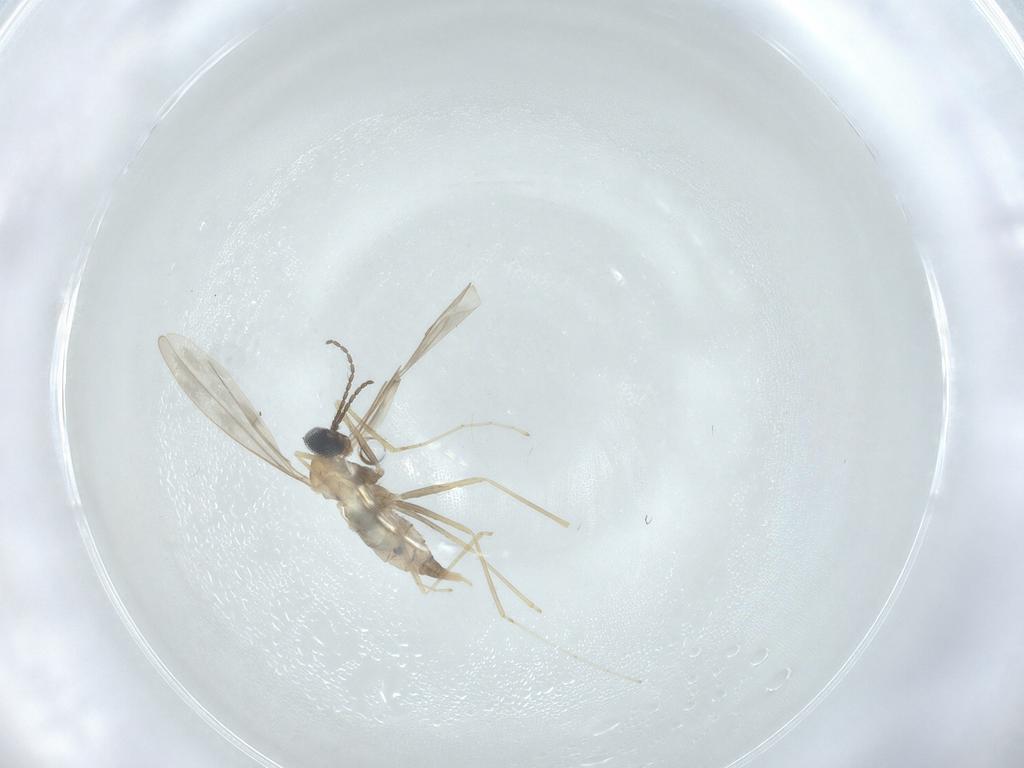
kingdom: Animalia
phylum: Arthropoda
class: Insecta
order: Diptera
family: Cecidomyiidae
